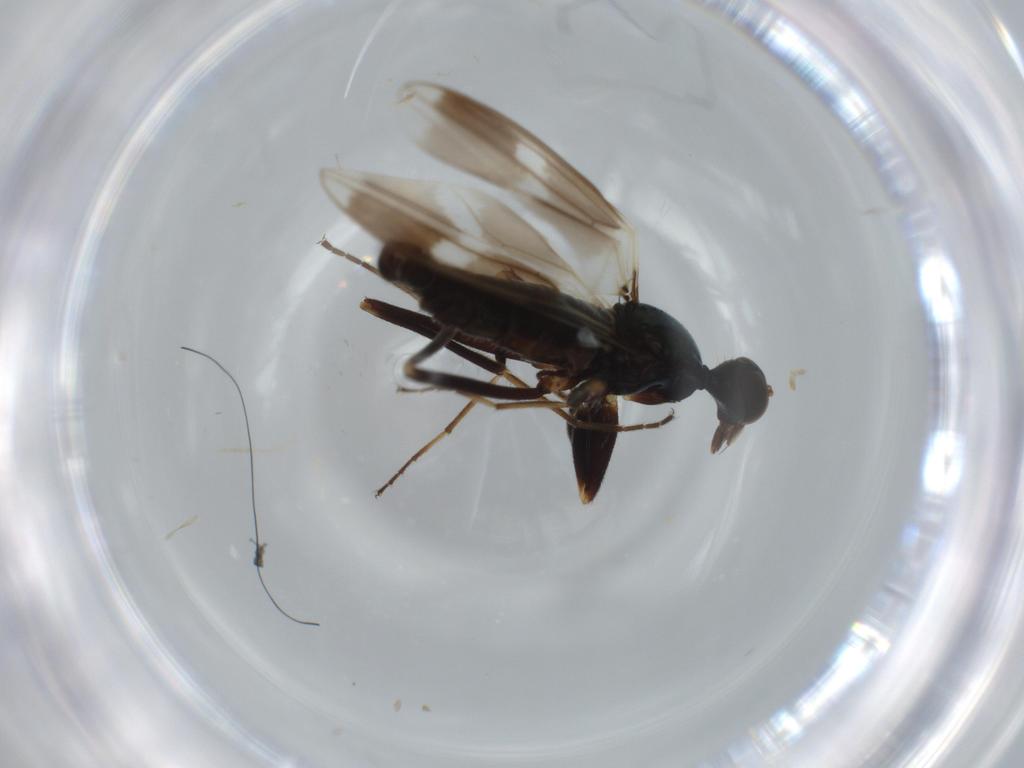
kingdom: Animalia
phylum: Arthropoda
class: Insecta
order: Diptera
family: Hybotidae
